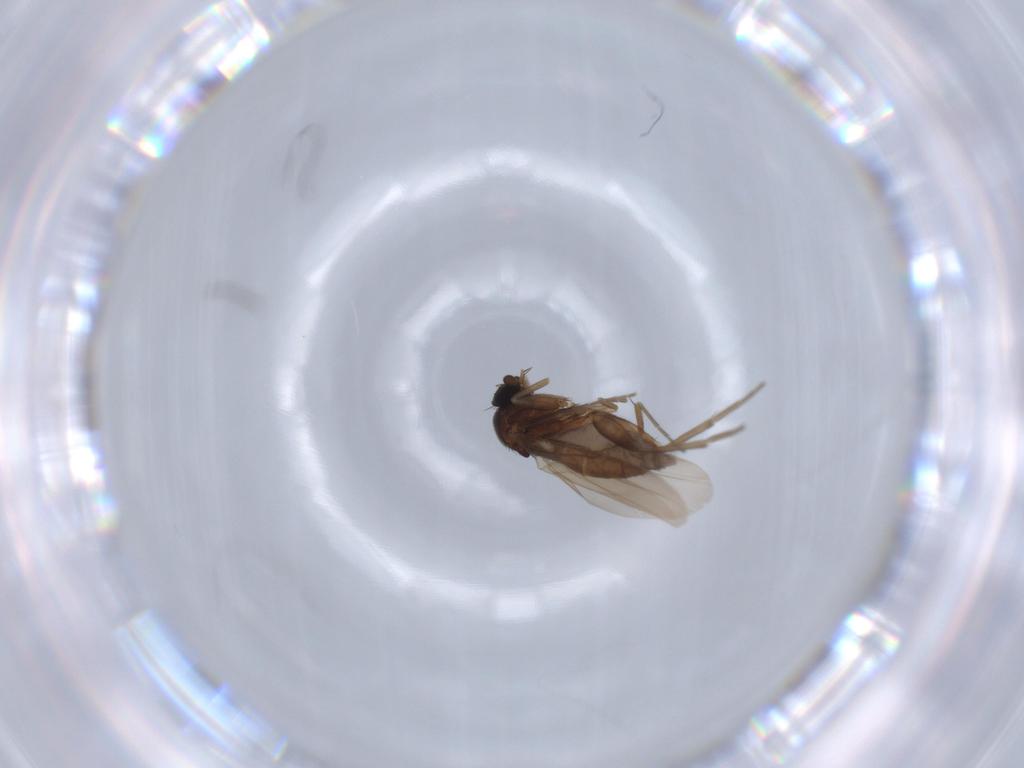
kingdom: Animalia
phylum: Arthropoda
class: Insecta
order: Diptera
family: Phoridae
